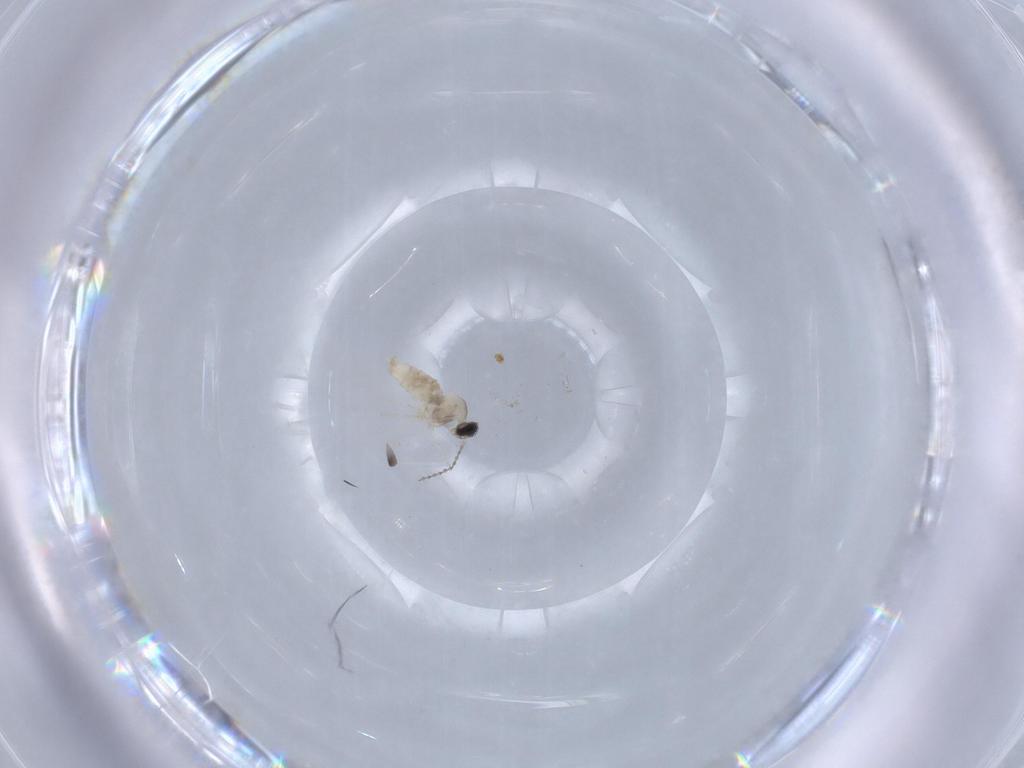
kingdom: Animalia
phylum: Arthropoda
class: Insecta
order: Diptera
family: Cecidomyiidae
